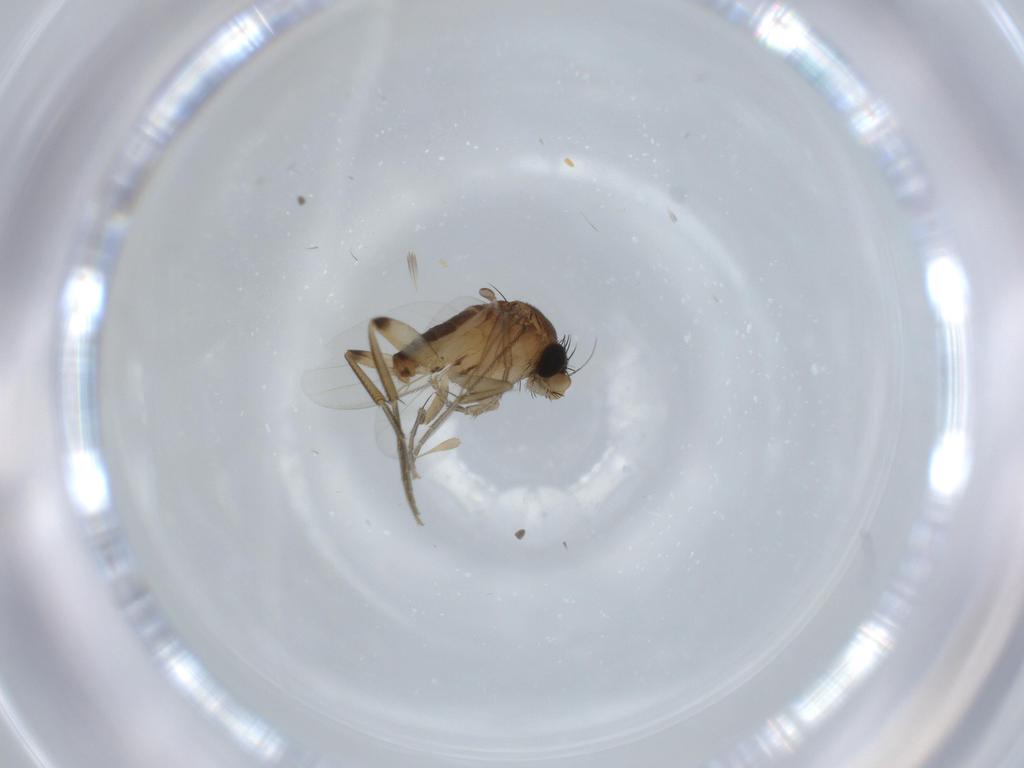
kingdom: Animalia
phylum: Arthropoda
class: Insecta
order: Diptera
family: Phoridae
